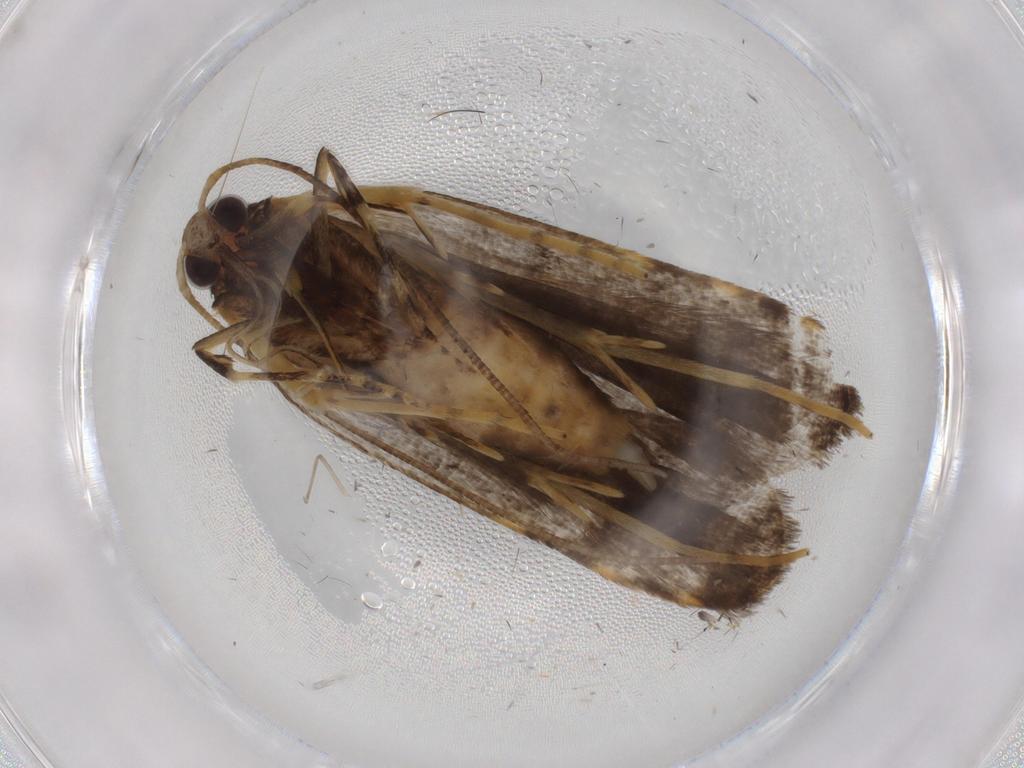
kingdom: Animalia
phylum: Arthropoda
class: Insecta
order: Lepidoptera
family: Cosmopterigidae
